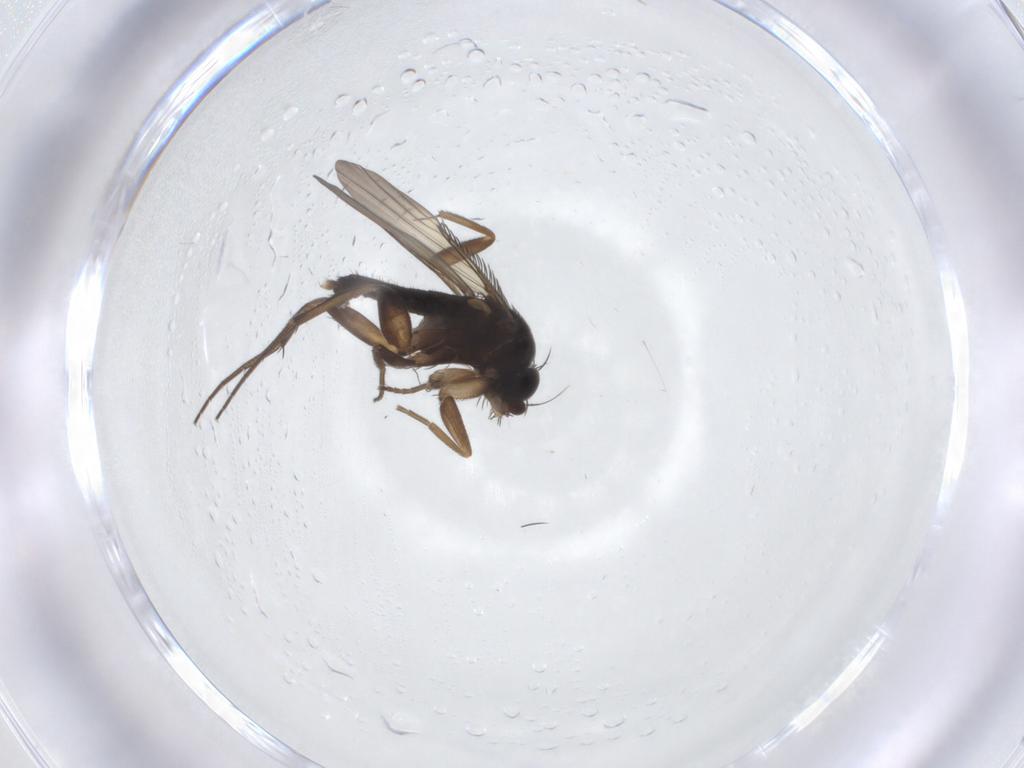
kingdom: Animalia
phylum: Arthropoda
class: Insecta
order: Diptera
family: Phoridae
